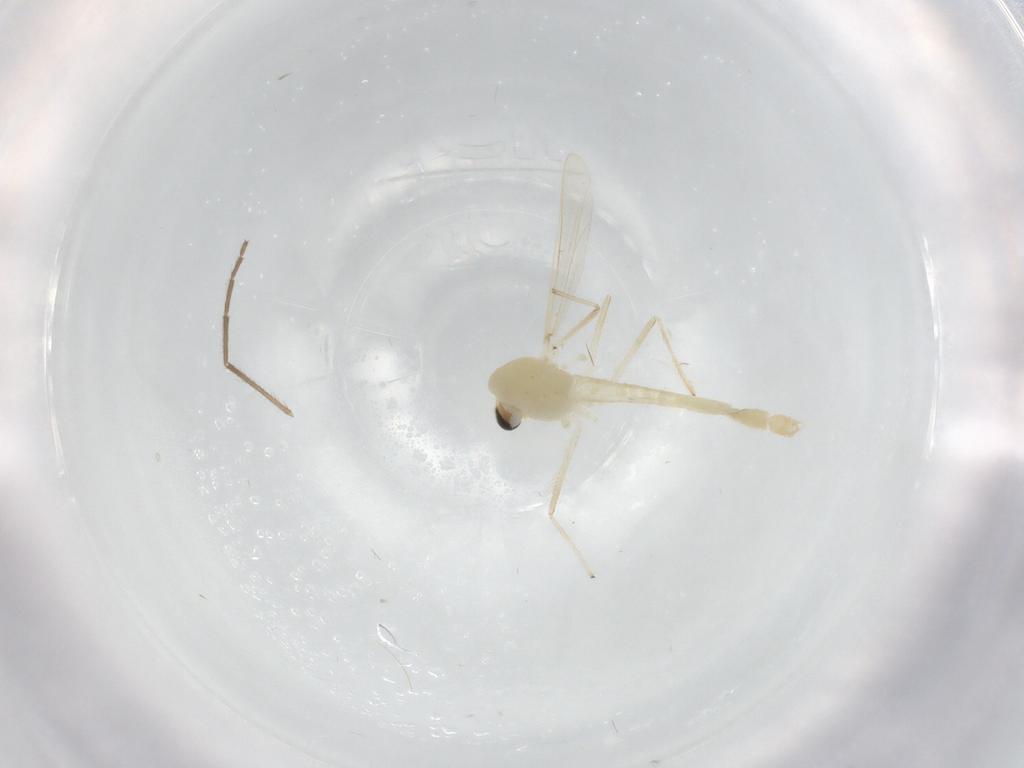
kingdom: Animalia
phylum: Arthropoda
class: Insecta
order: Diptera
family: Chironomidae
